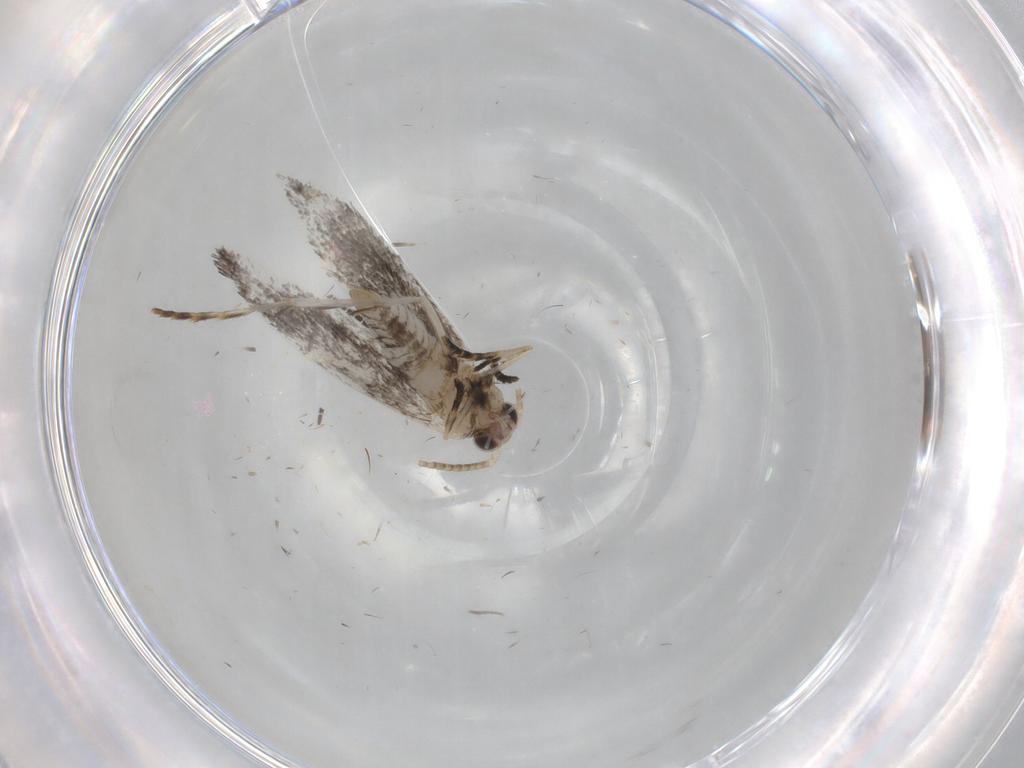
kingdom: Animalia
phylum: Arthropoda
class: Insecta
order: Lepidoptera
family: Tineidae
